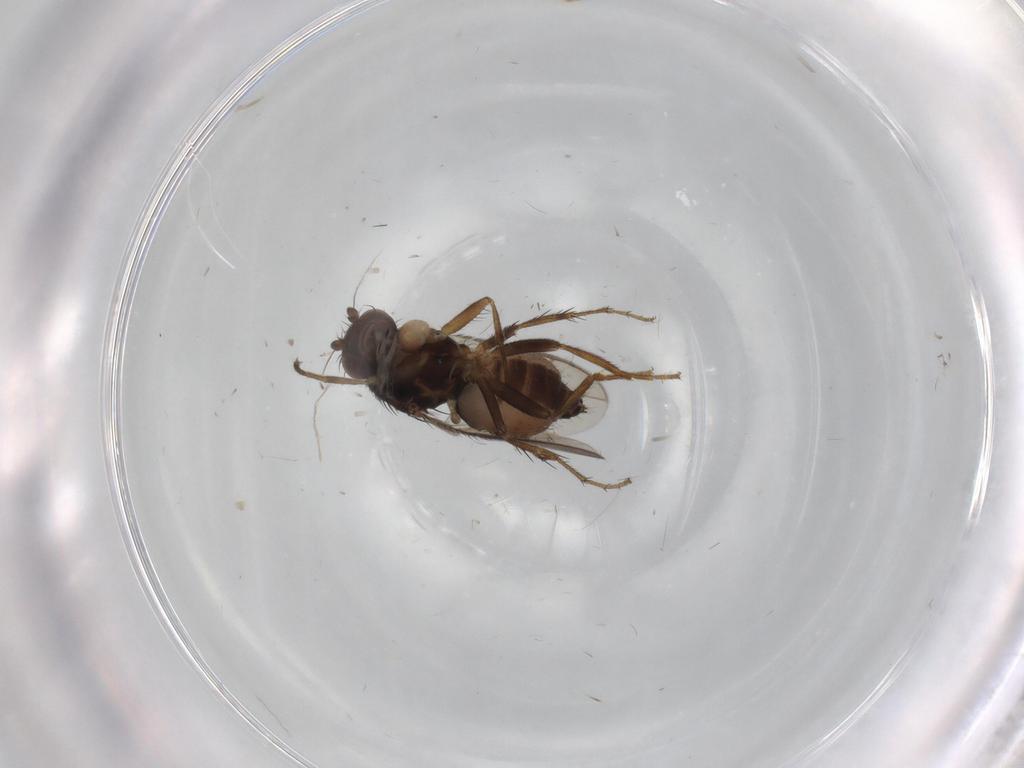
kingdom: Animalia
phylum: Arthropoda
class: Insecta
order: Diptera
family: Sphaeroceridae
